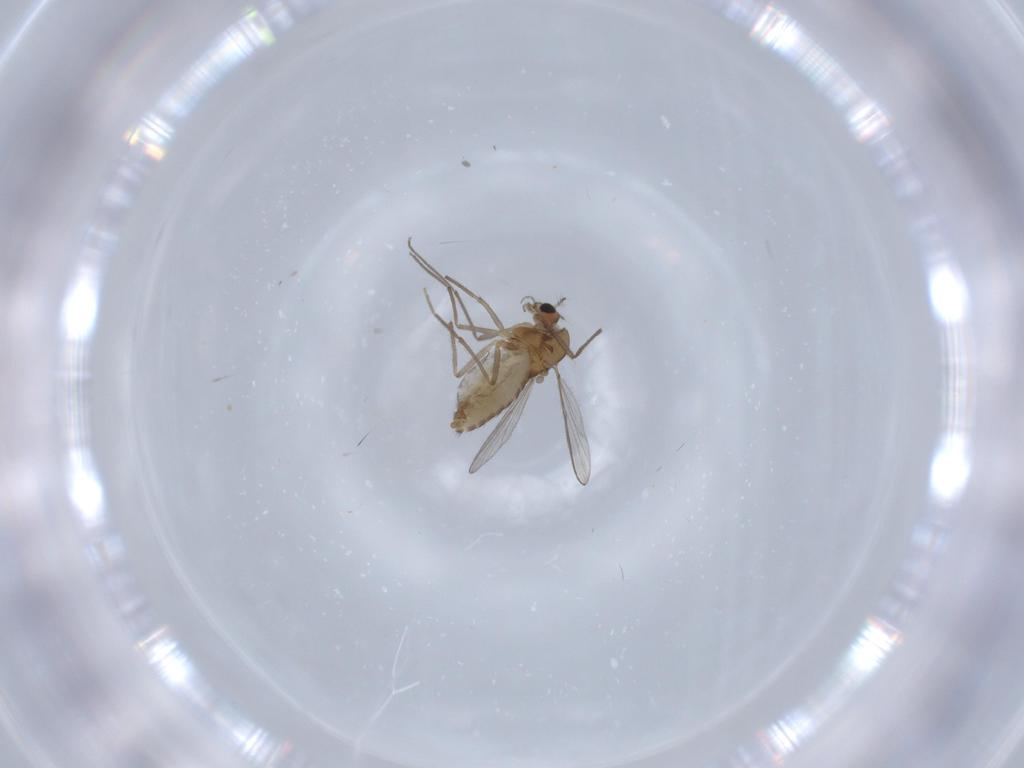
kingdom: Animalia
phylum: Arthropoda
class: Insecta
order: Diptera
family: Chironomidae
